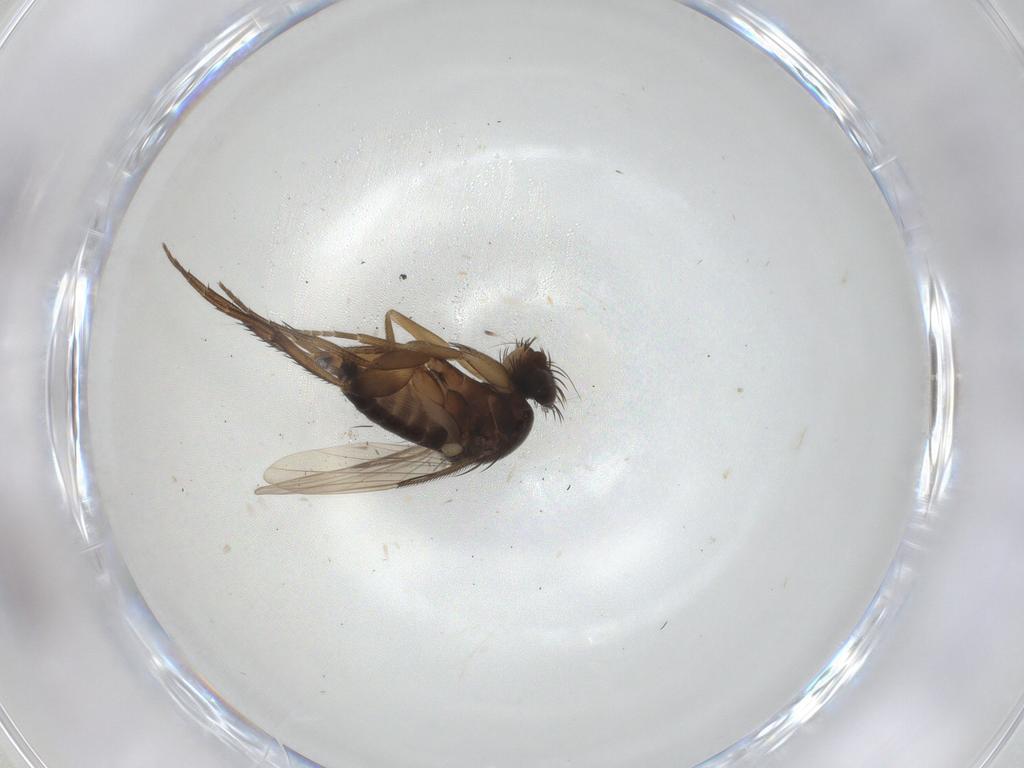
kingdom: Animalia
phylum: Arthropoda
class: Insecta
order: Diptera
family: Phoridae
